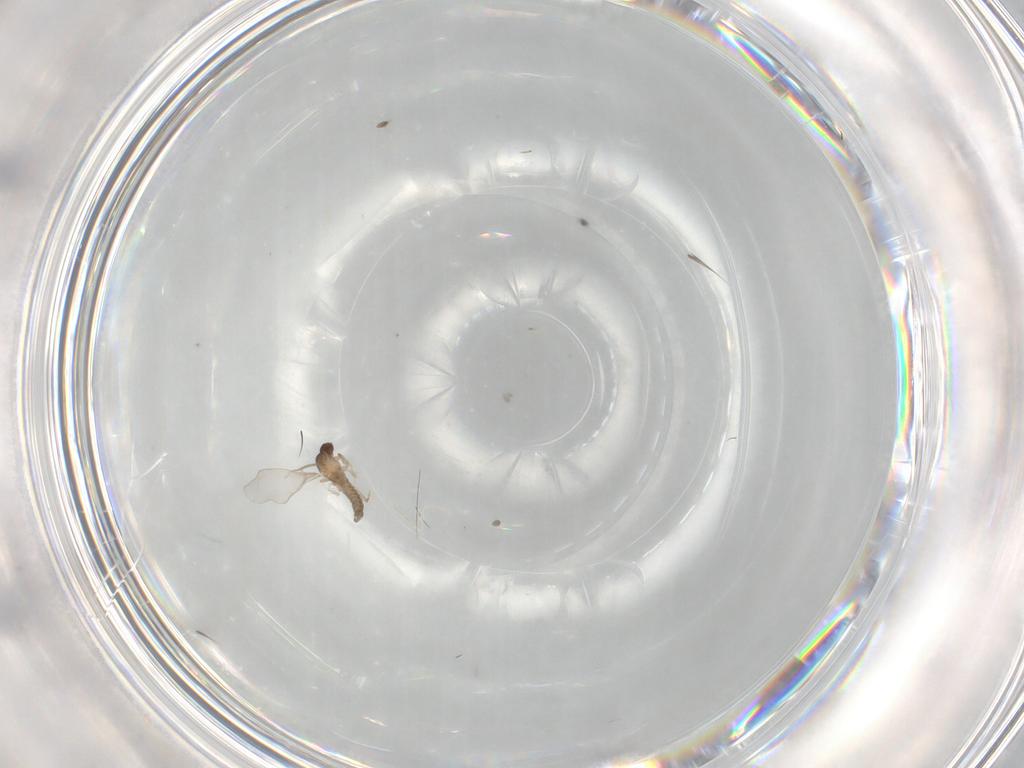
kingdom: Animalia
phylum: Arthropoda
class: Insecta
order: Diptera
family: Cecidomyiidae
